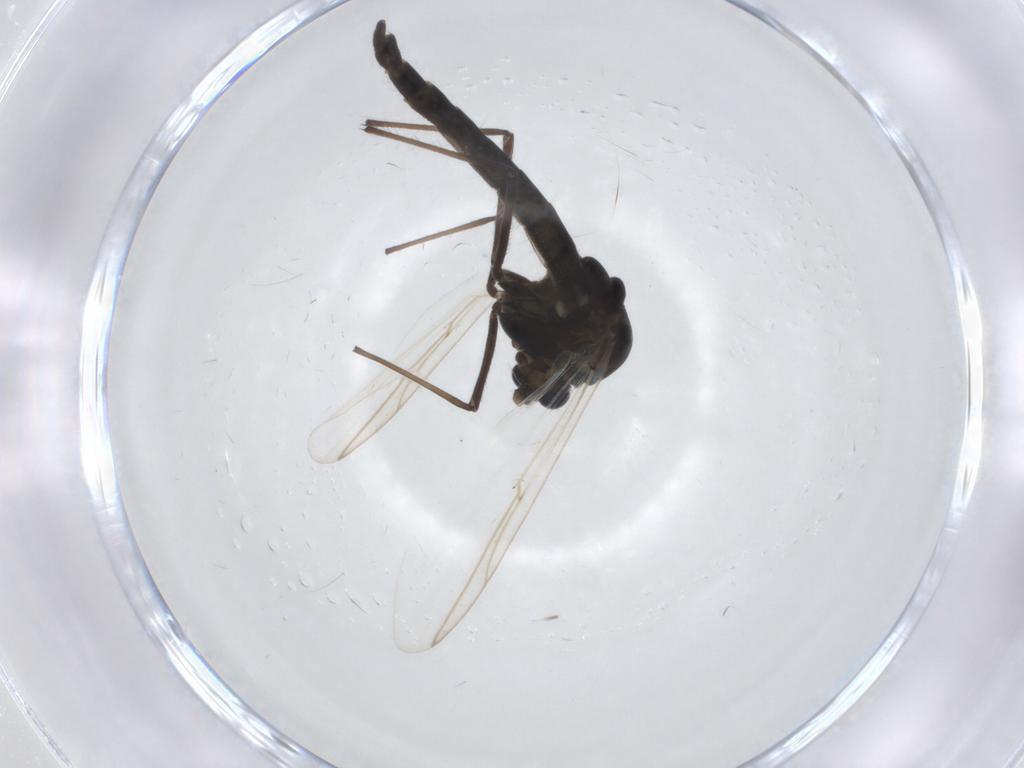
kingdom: Animalia
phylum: Arthropoda
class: Insecta
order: Diptera
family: Chironomidae
